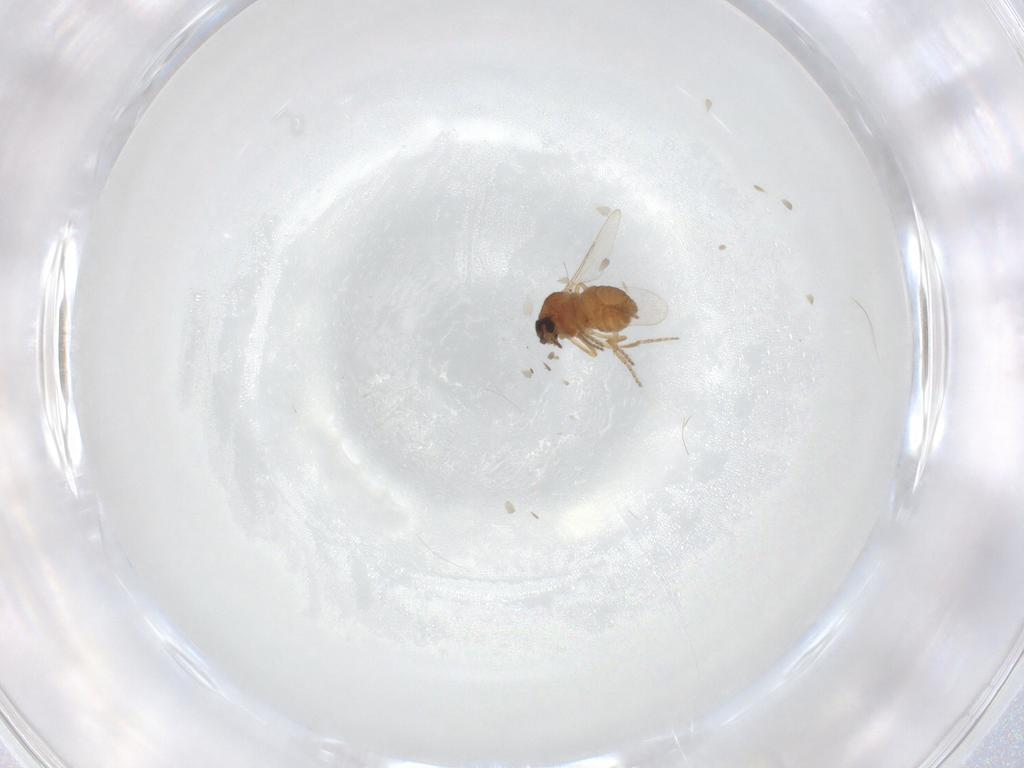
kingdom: Animalia
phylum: Arthropoda
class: Insecta
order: Diptera
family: Ceratopogonidae
